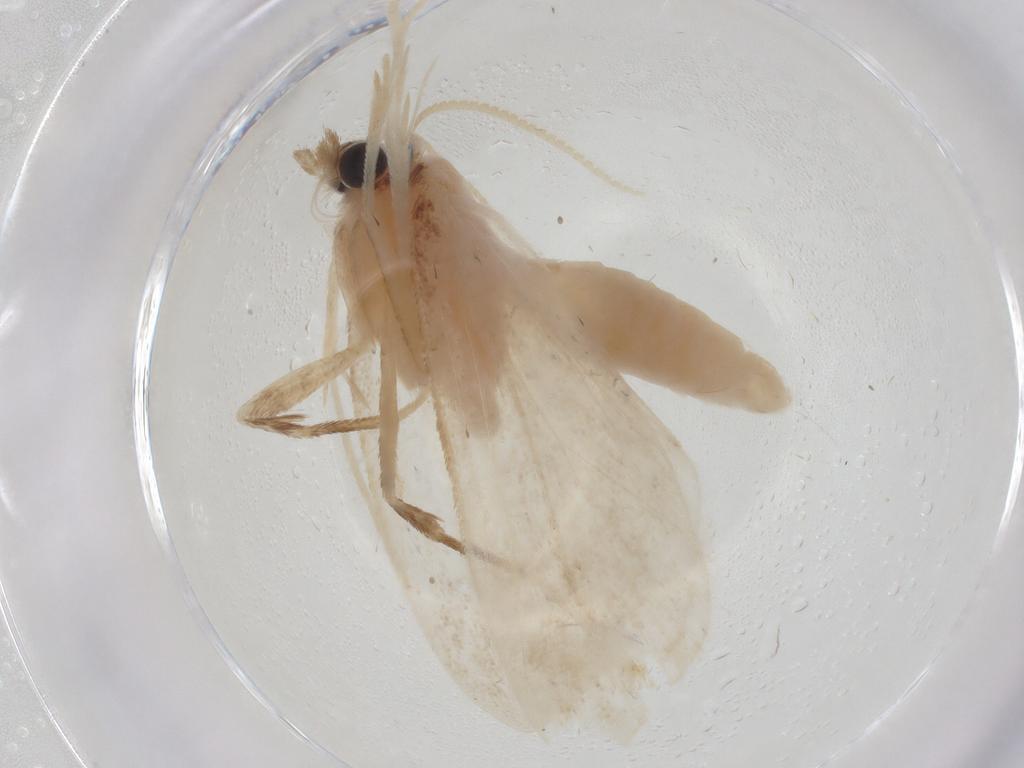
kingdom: Animalia
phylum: Arthropoda
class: Insecta
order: Lepidoptera
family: Crambidae
